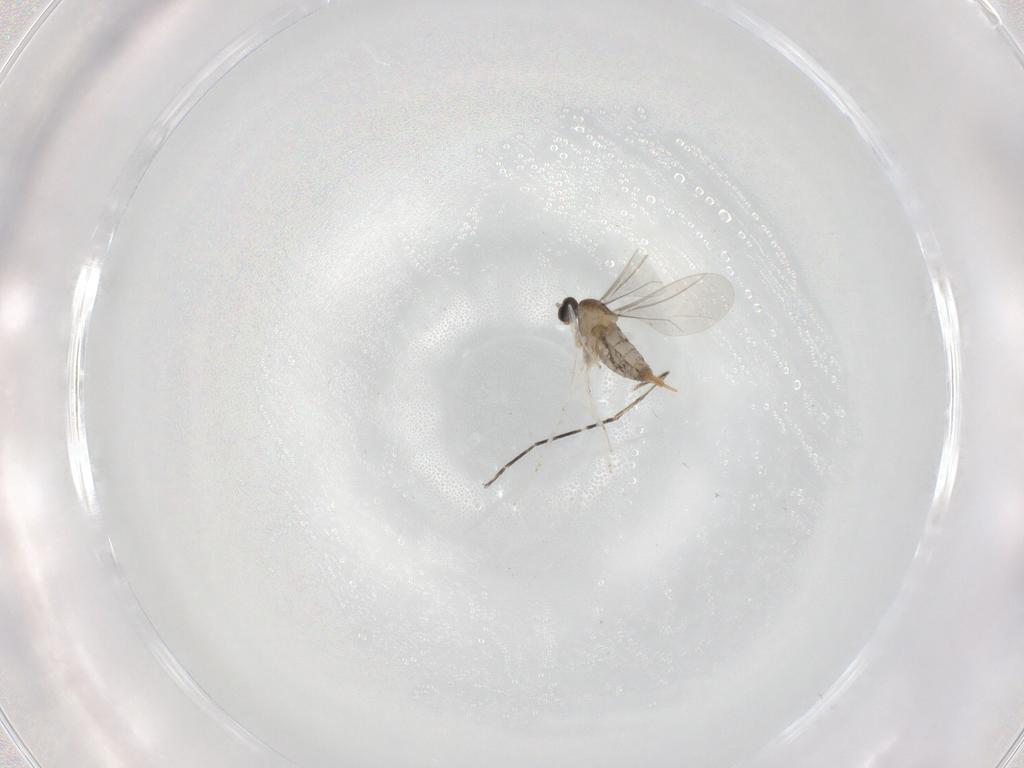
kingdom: Animalia
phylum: Arthropoda
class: Insecta
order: Diptera
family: Cecidomyiidae
